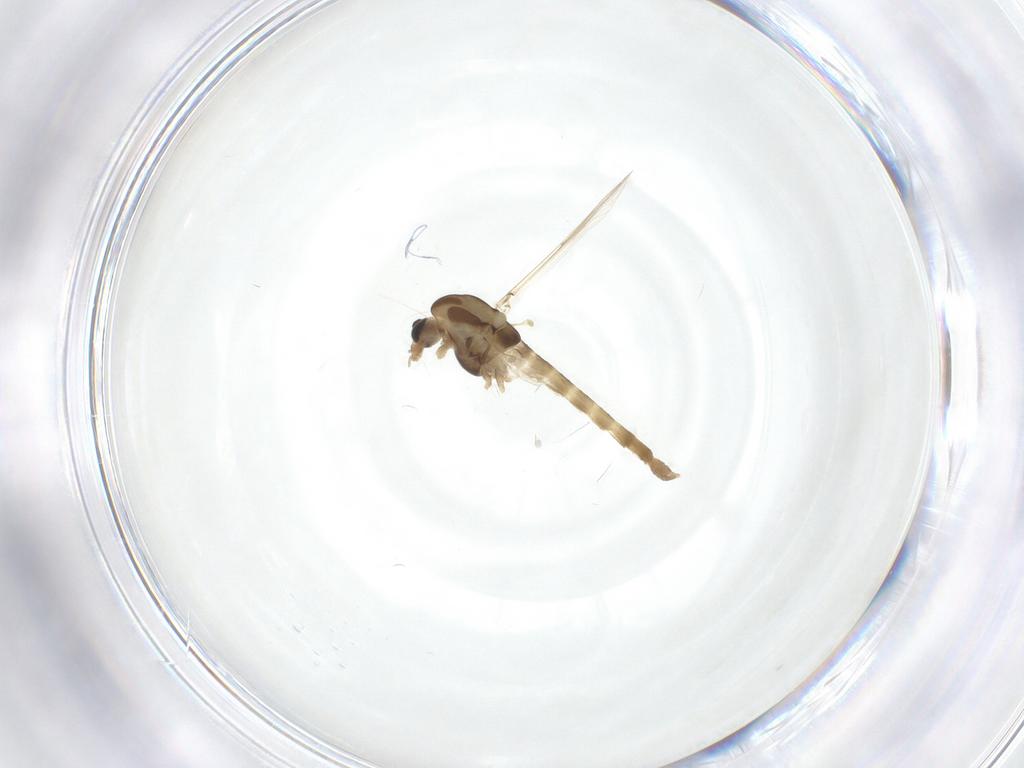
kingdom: Animalia
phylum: Arthropoda
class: Insecta
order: Diptera
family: Chironomidae
